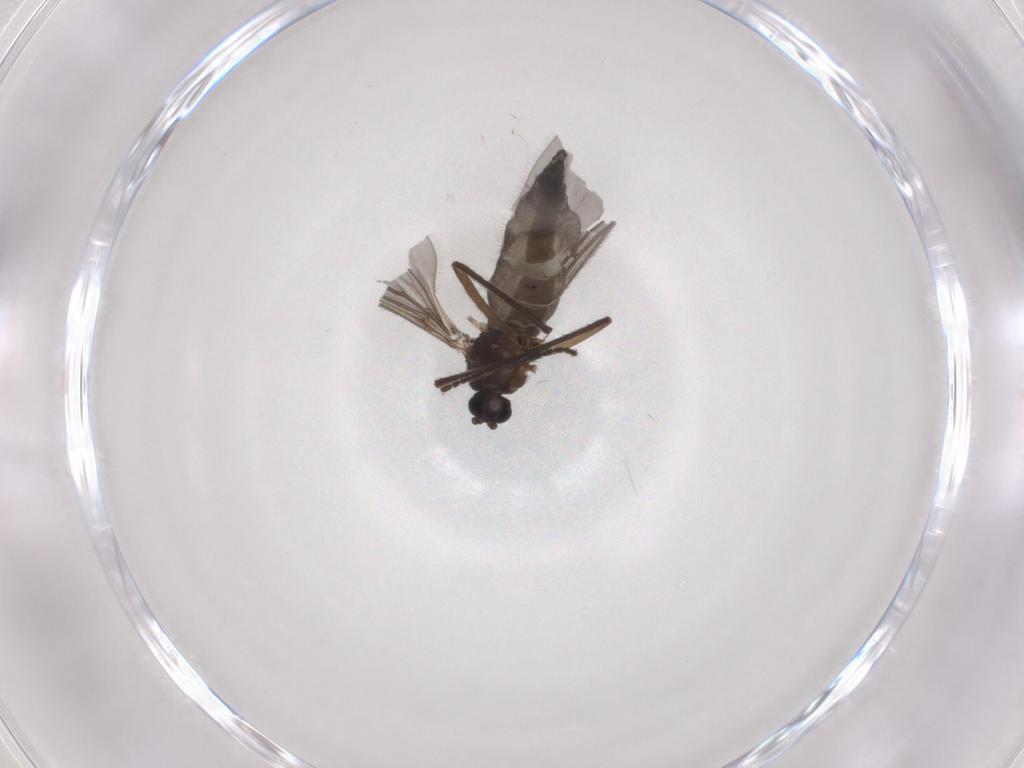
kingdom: Animalia
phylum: Arthropoda
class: Insecta
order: Diptera
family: Sciaridae
